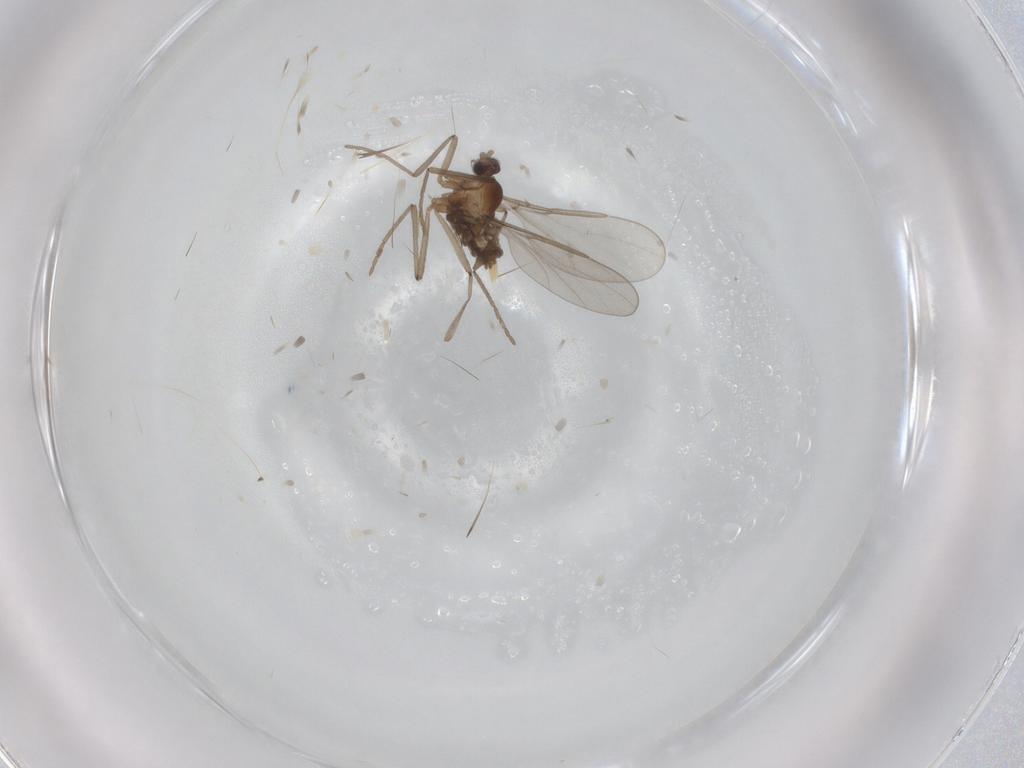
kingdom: Animalia
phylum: Arthropoda
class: Insecta
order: Diptera
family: Cecidomyiidae
